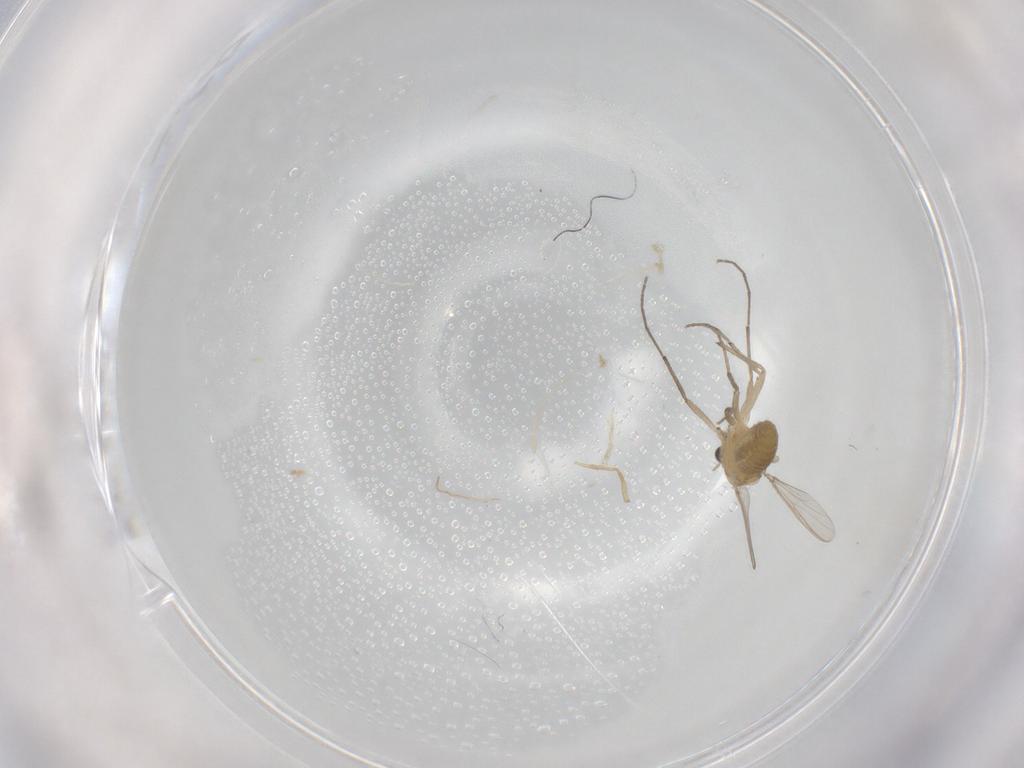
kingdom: Animalia
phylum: Arthropoda
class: Insecta
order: Diptera
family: Chironomidae
